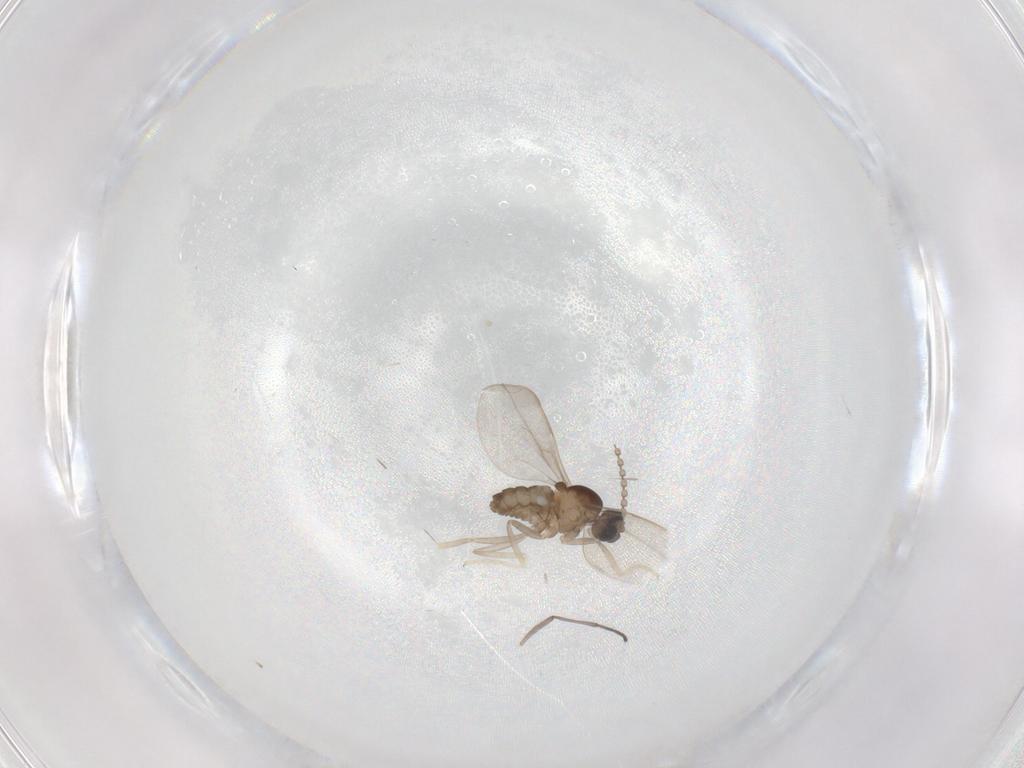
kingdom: Animalia
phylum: Arthropoda
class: Insecta
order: Diptera
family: Cecidomyiidae
